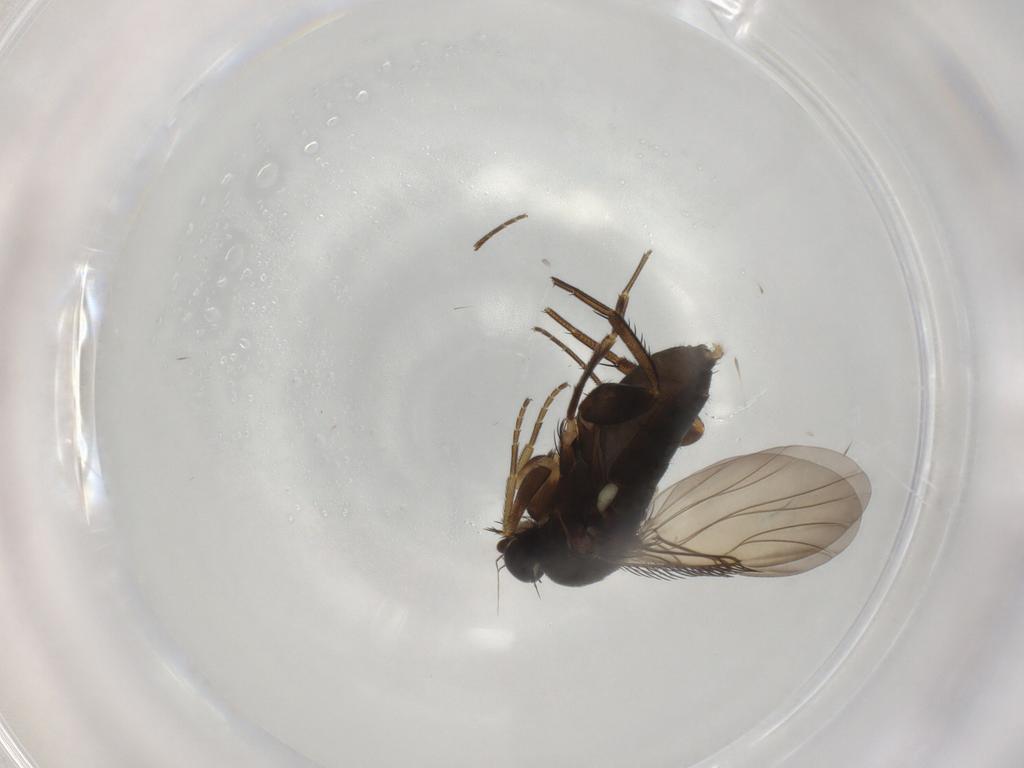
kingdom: Animalia
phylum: Arthropoda
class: Insecta
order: Diptera
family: Phoridae
